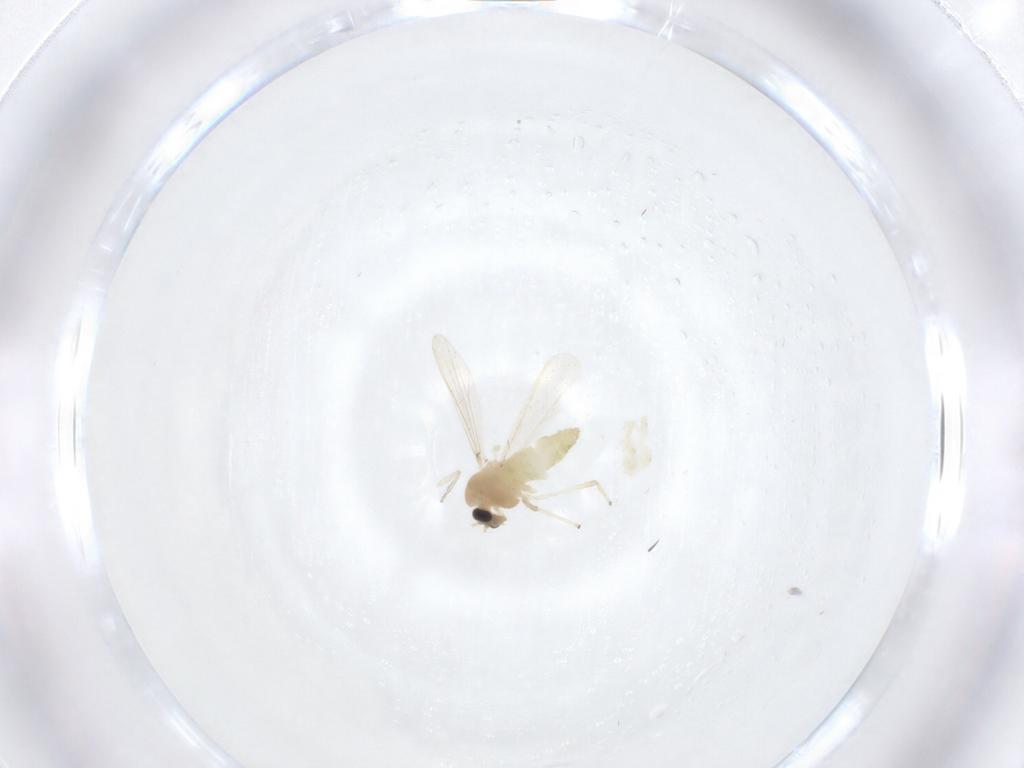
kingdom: Animalia
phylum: Arthropoda
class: Insecta
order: Diptera
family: Chironomidae
